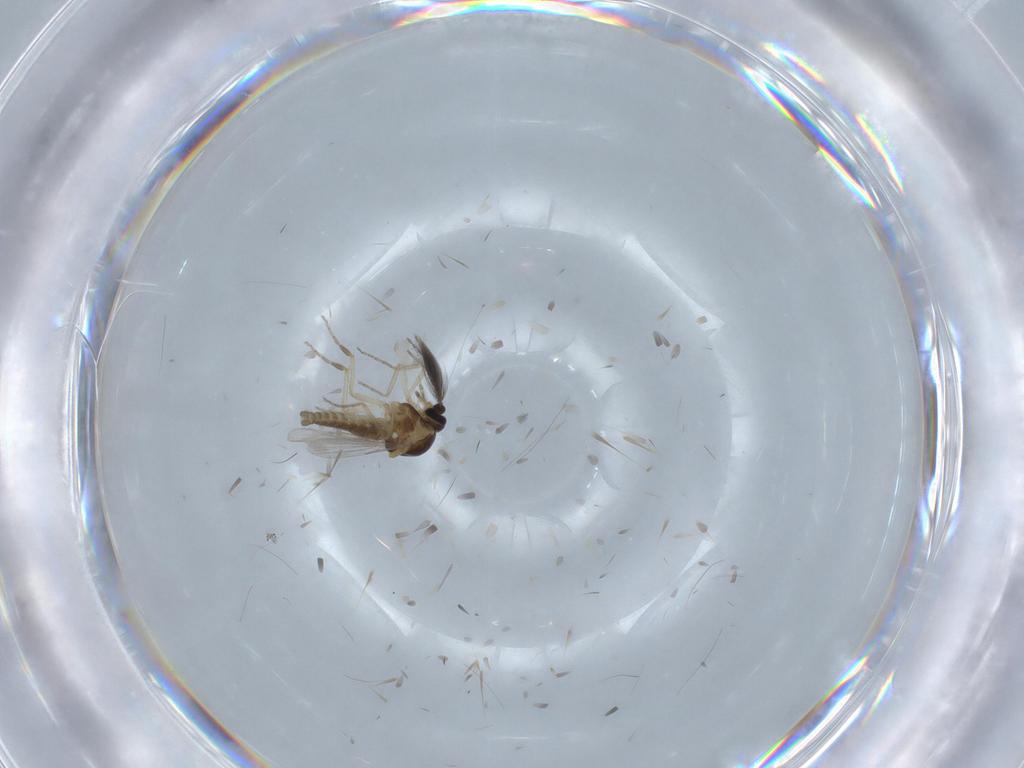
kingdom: Animalia
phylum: Arthropoda
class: Insecta
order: Diptera
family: Ceratopogonidae
